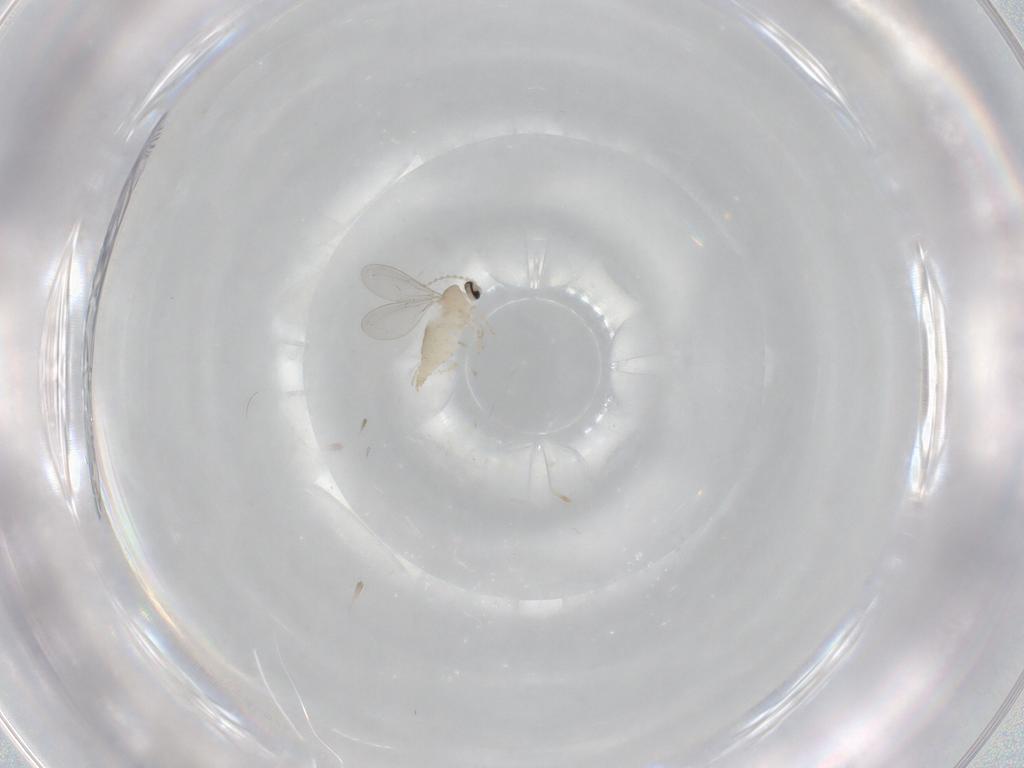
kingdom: Animalia
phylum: Arthropoda
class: Insecta
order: Diptera
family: Cecidomyiidae
